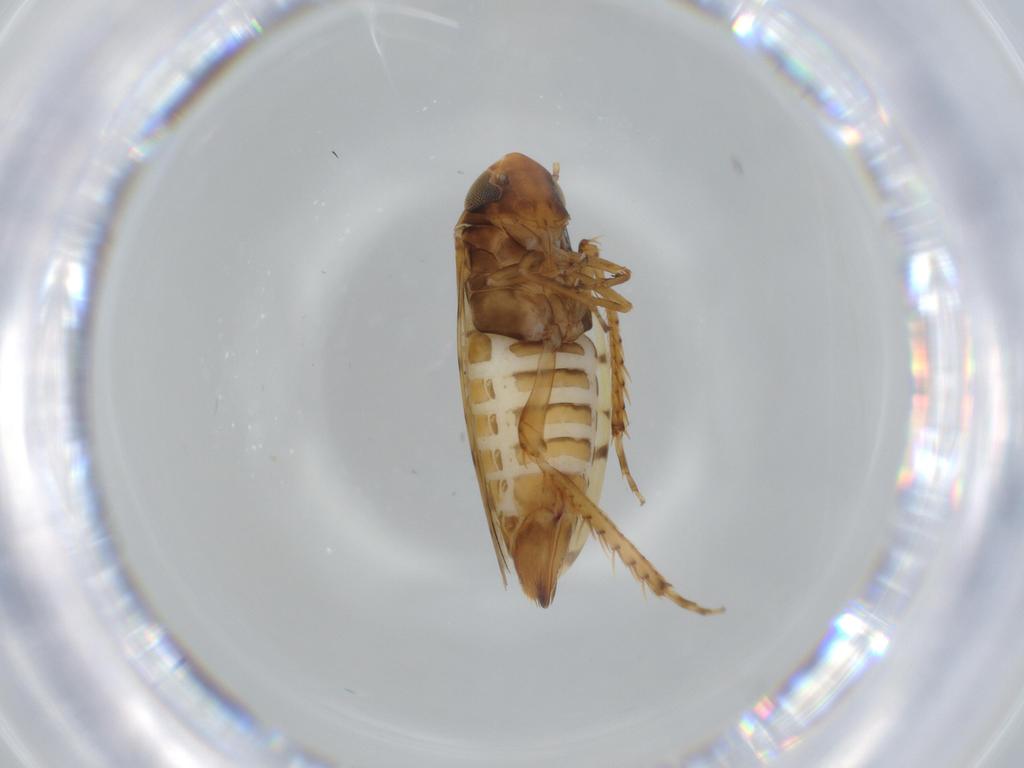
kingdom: Animalia
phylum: Arthropoda
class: Insecta
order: Hemiptera
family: Cicadellidae
